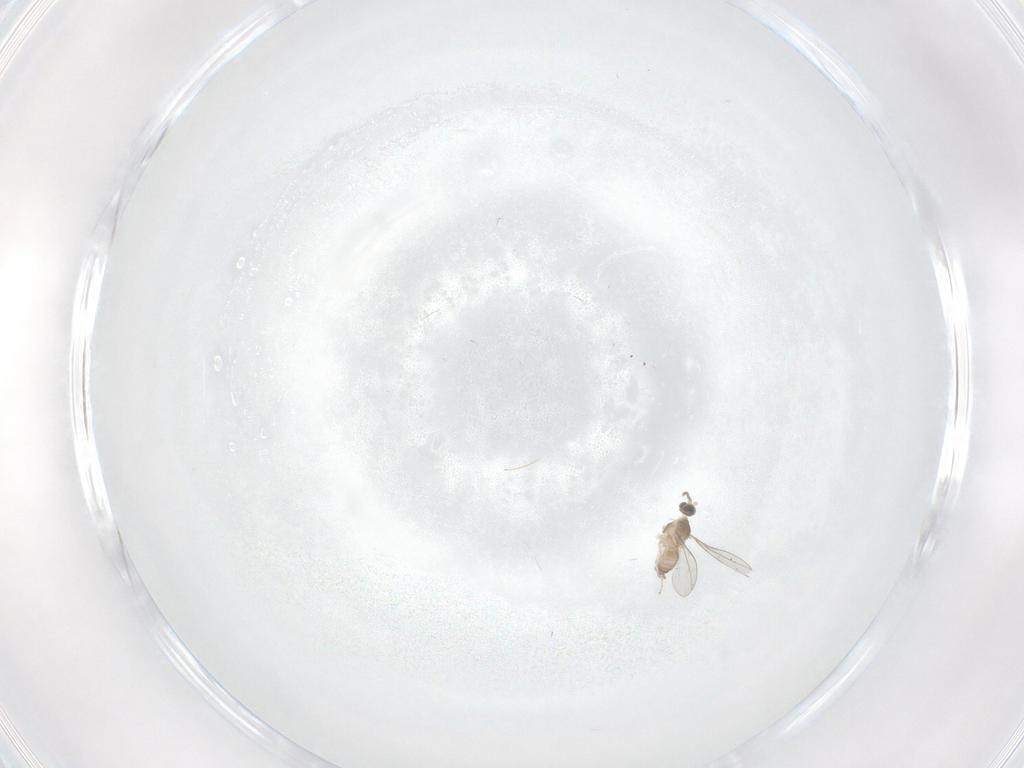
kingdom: Animalia
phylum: Arthropoda
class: Insecta
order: Diptera
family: Cecidomyiidae
